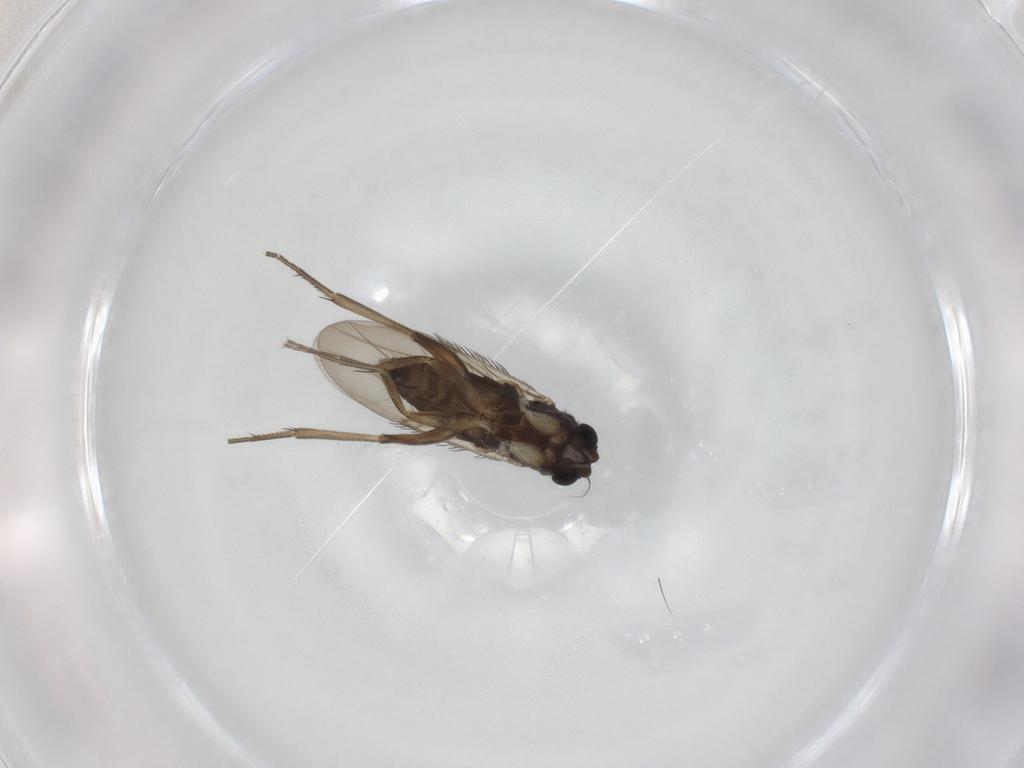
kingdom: Animalia
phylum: Arthropoda
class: Insecta
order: Diptera
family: Phoridae
